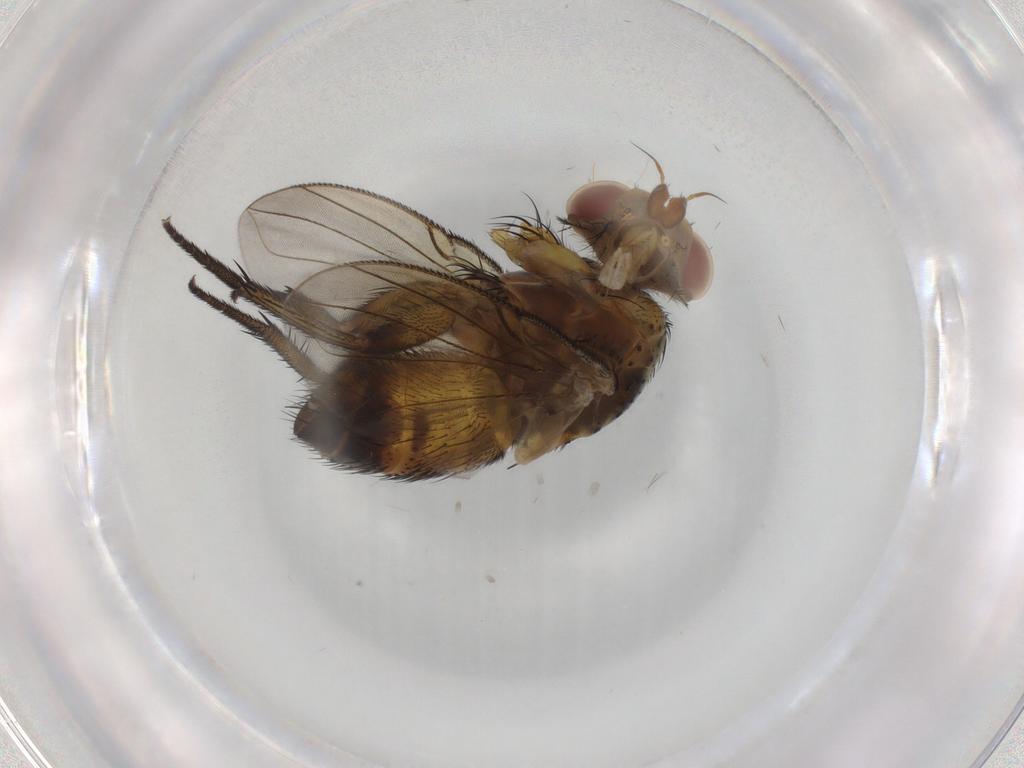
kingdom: Animalia
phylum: Arthropoda
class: Insecta
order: Diptera
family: Tachinidae
